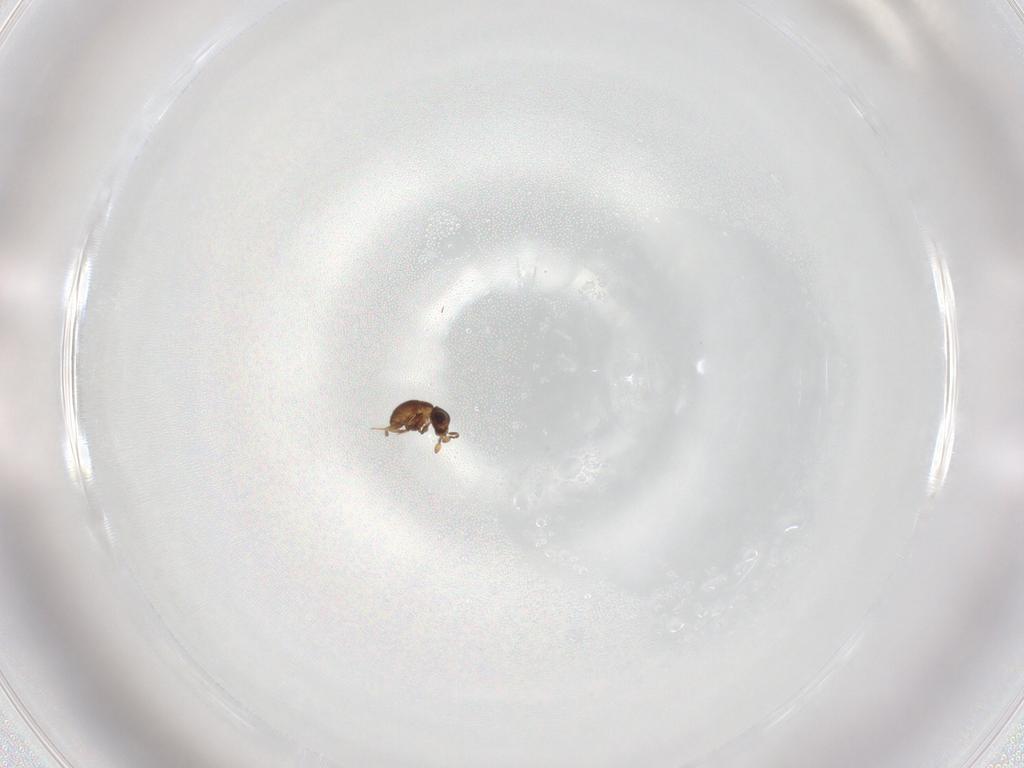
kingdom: Animalia
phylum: Arthropoda
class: Insecta
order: Hymenoptera
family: Scelionidae
